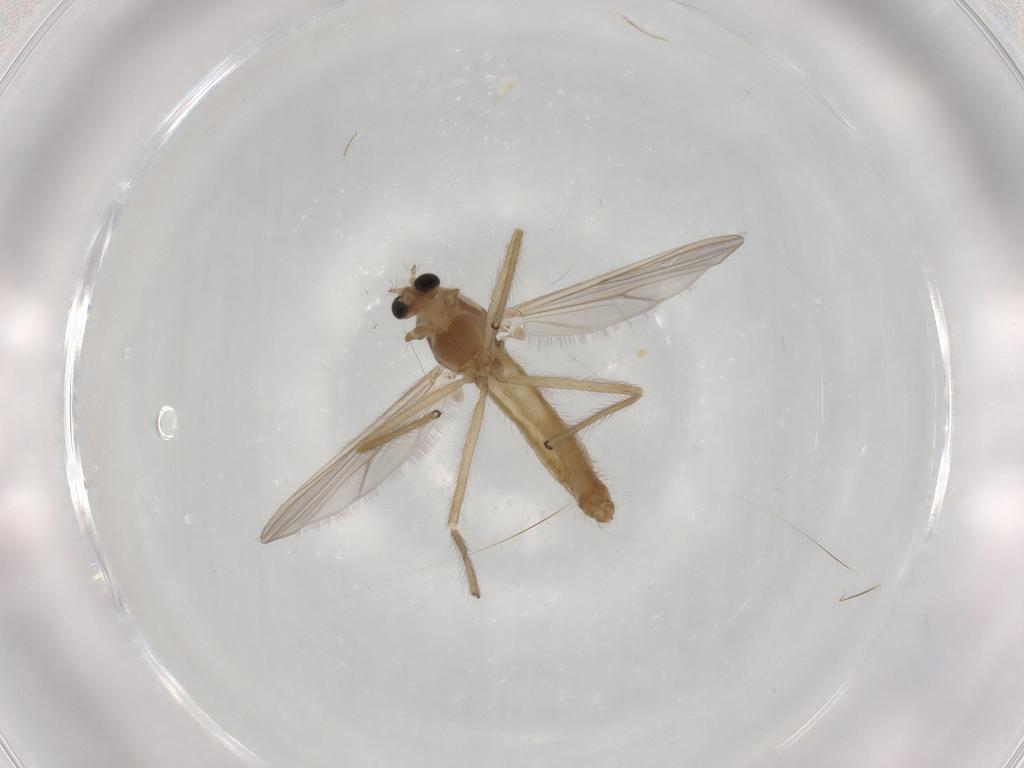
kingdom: Animalia
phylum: Arthropoda
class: Insecta
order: Diptera
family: Chironomidae
